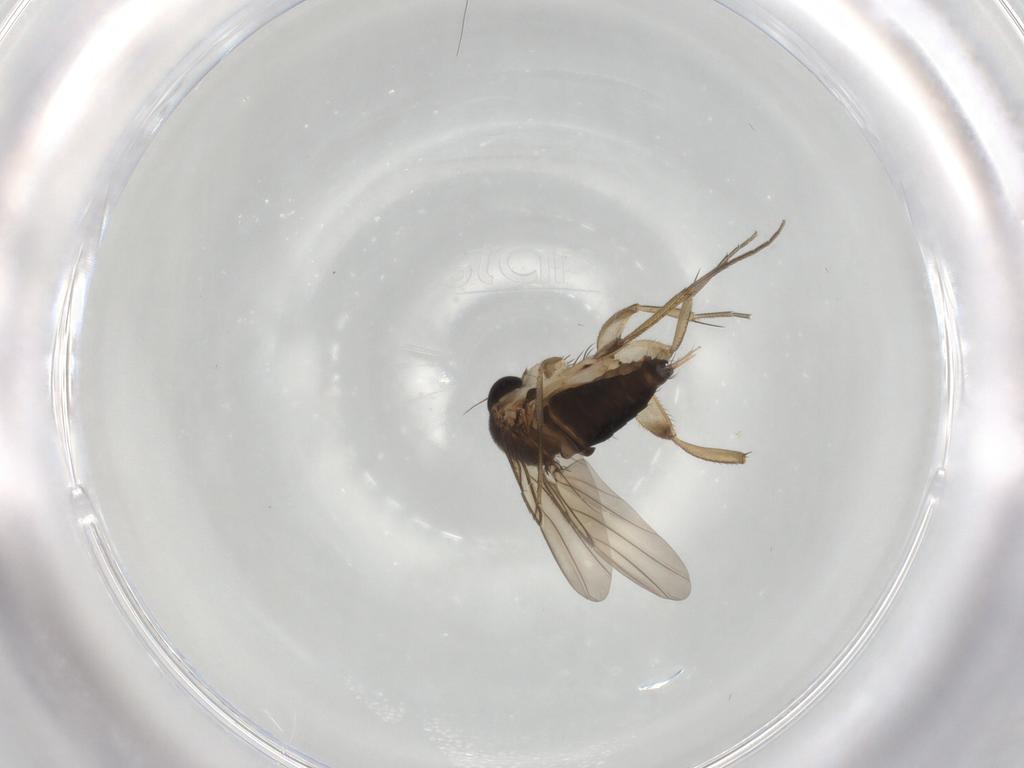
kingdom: Animalia
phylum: Arthropoda
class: Insecta
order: Diptera
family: Phoridae
